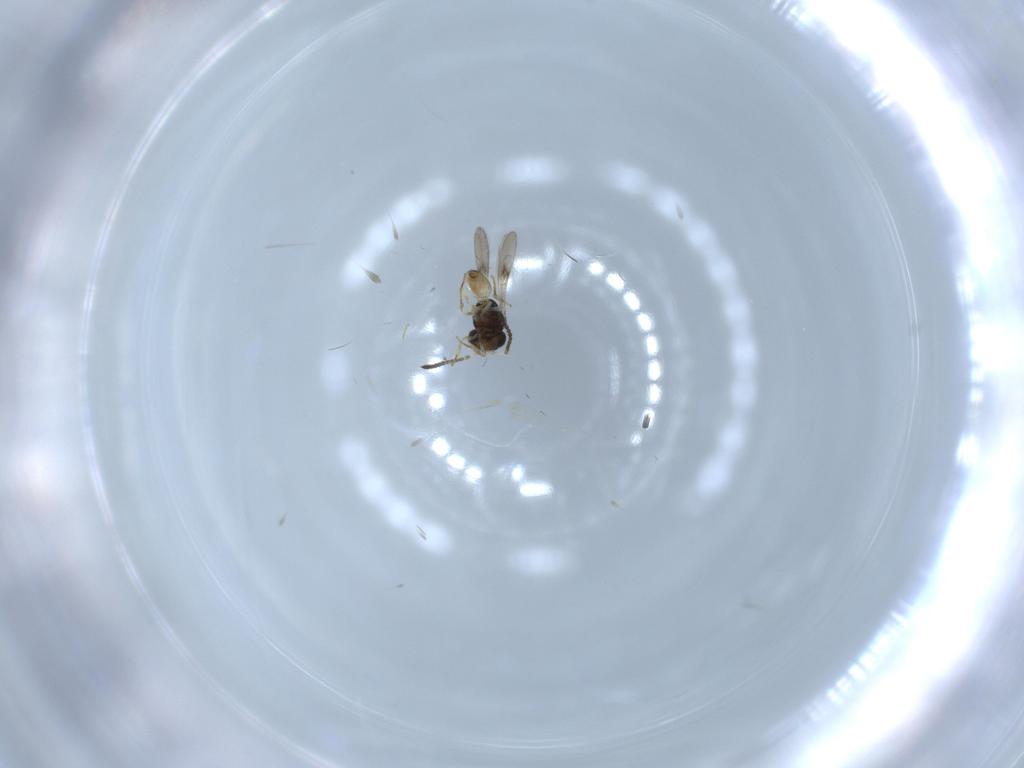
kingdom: Animalia
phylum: Arthropoda
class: Insecta
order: Hymenoptera
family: Scelionidae
